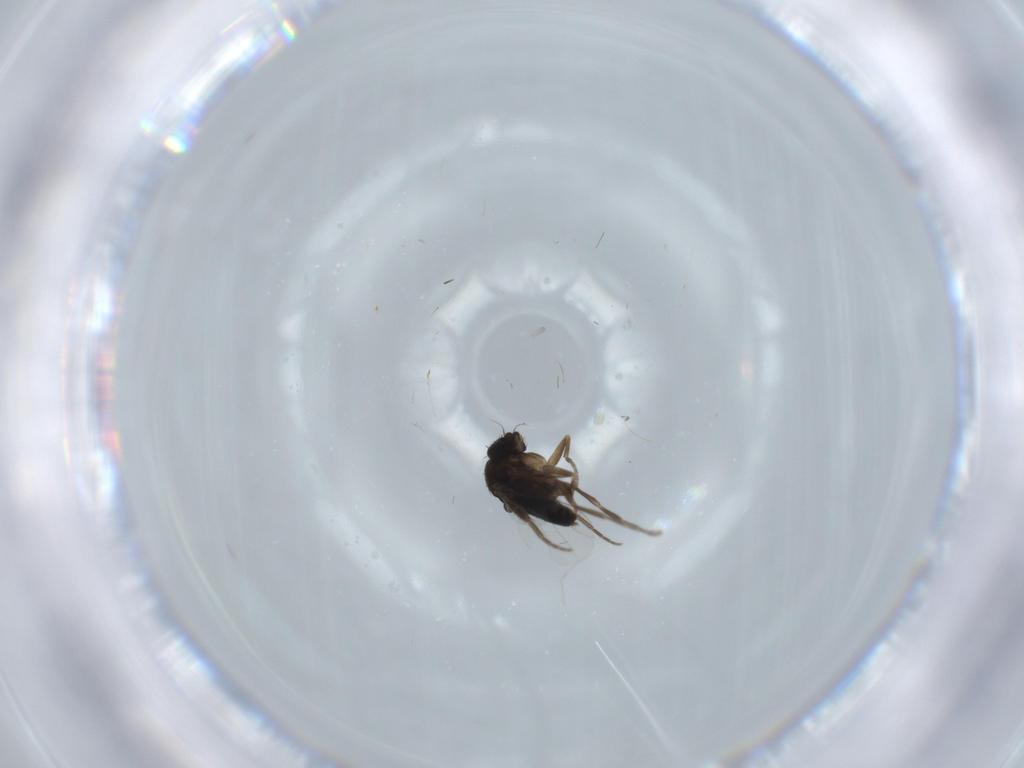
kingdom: Animalia
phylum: Arthropoda
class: Insecta
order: Diptera
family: Phoridae
